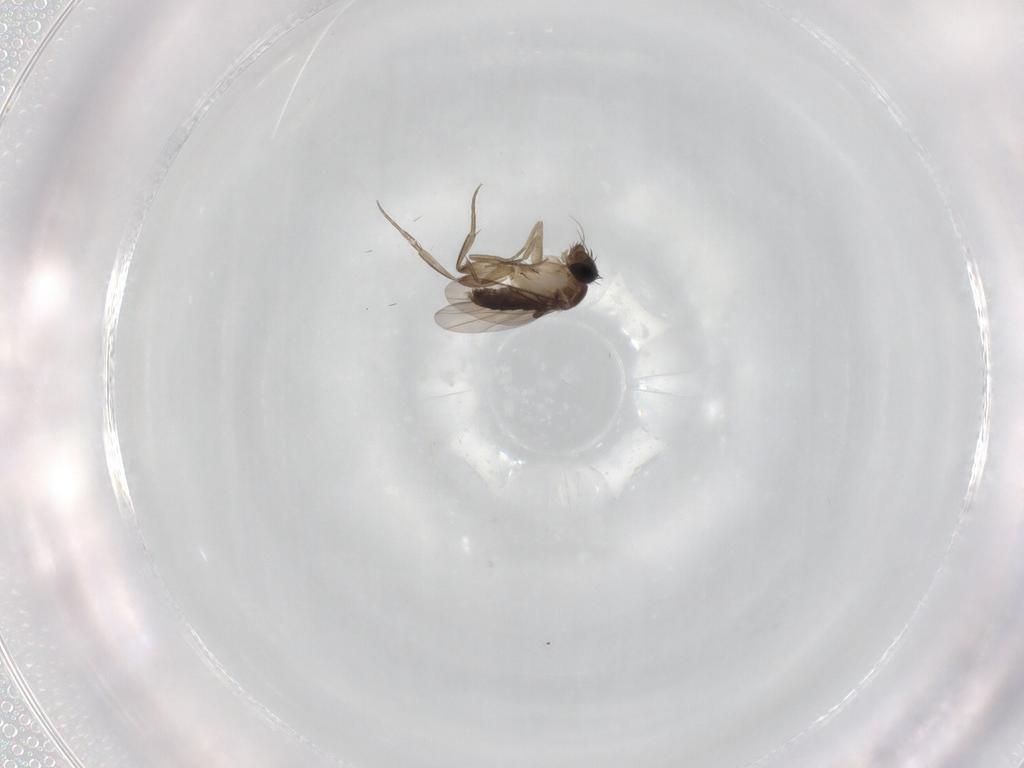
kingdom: Animalia
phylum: Arthropoda
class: Insecta
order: Diptera
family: Phoridae
